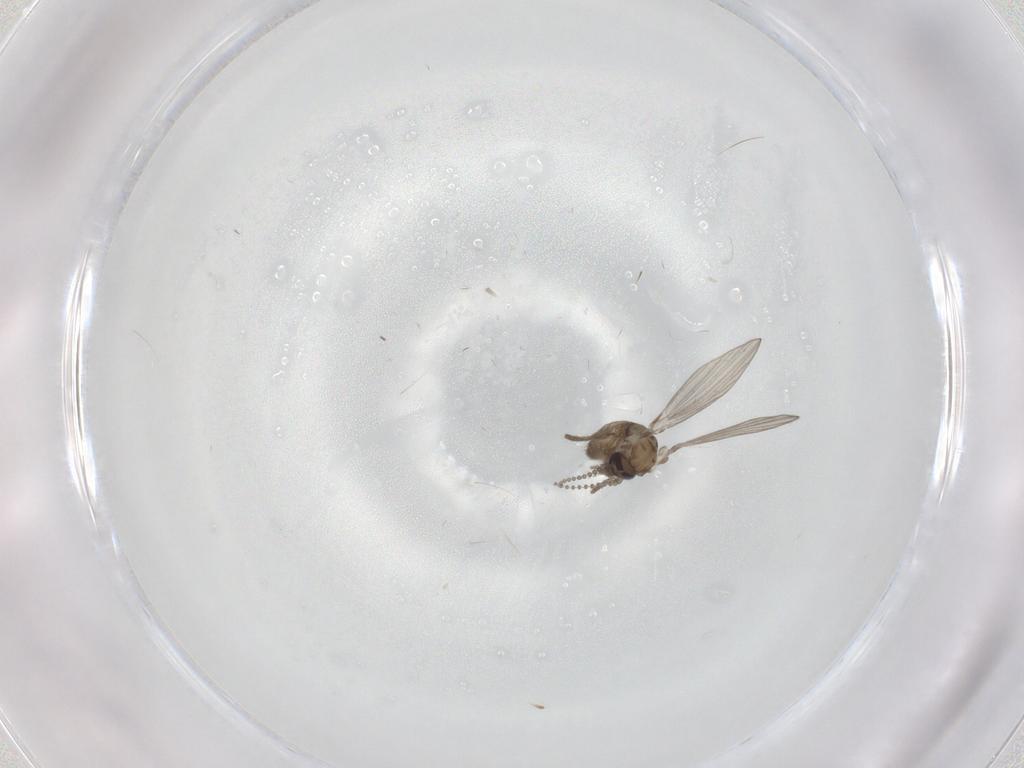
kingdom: Animalia
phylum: Arthropoda
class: Insecta
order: Diptera
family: Psychodidae
